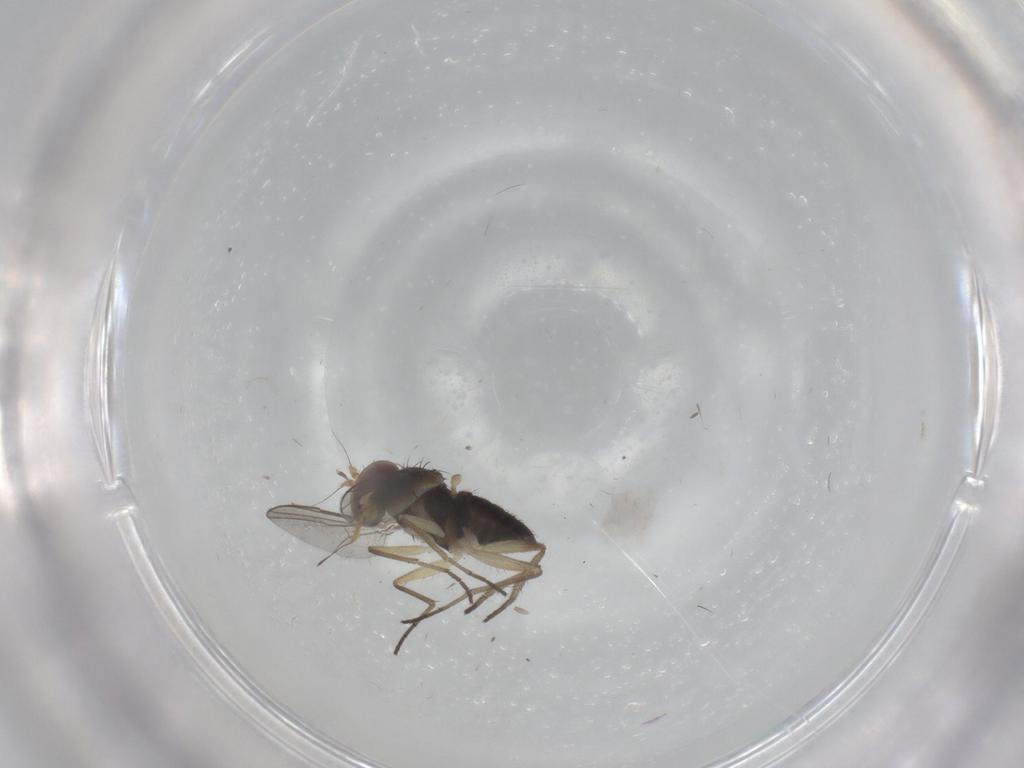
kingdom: Animalia
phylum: Arthropoda
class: Insecta
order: Diptera
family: Dolichopodidae
